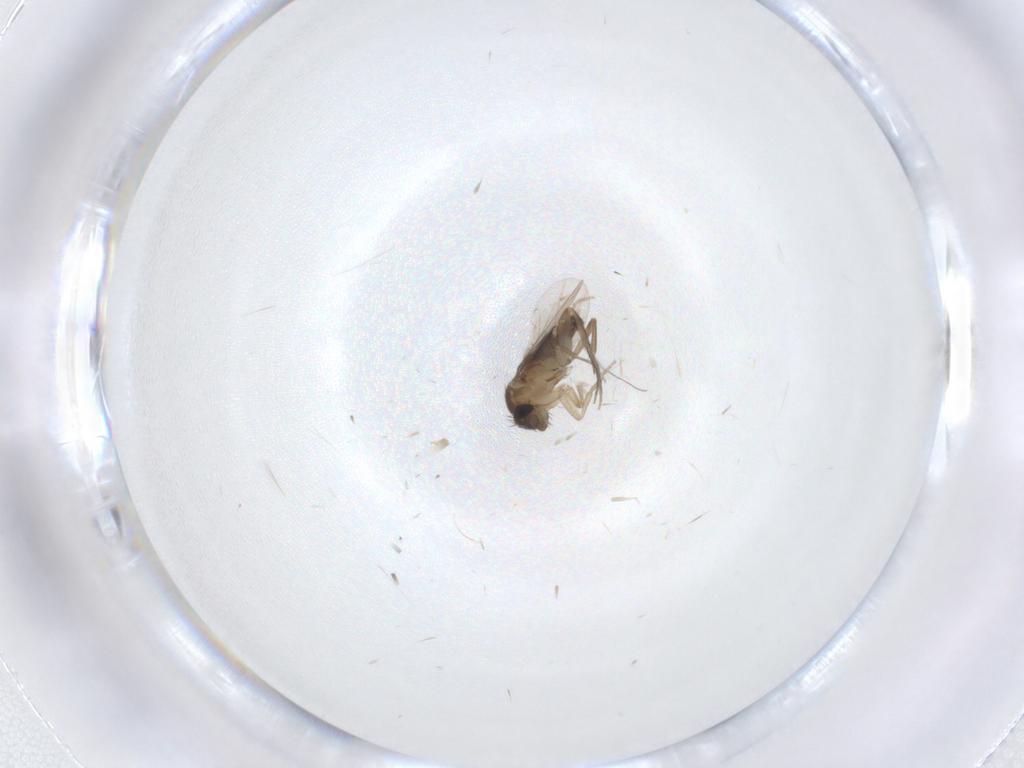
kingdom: Animalia
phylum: Arthropoda
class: Insecta
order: Diptera
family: Phoridae
